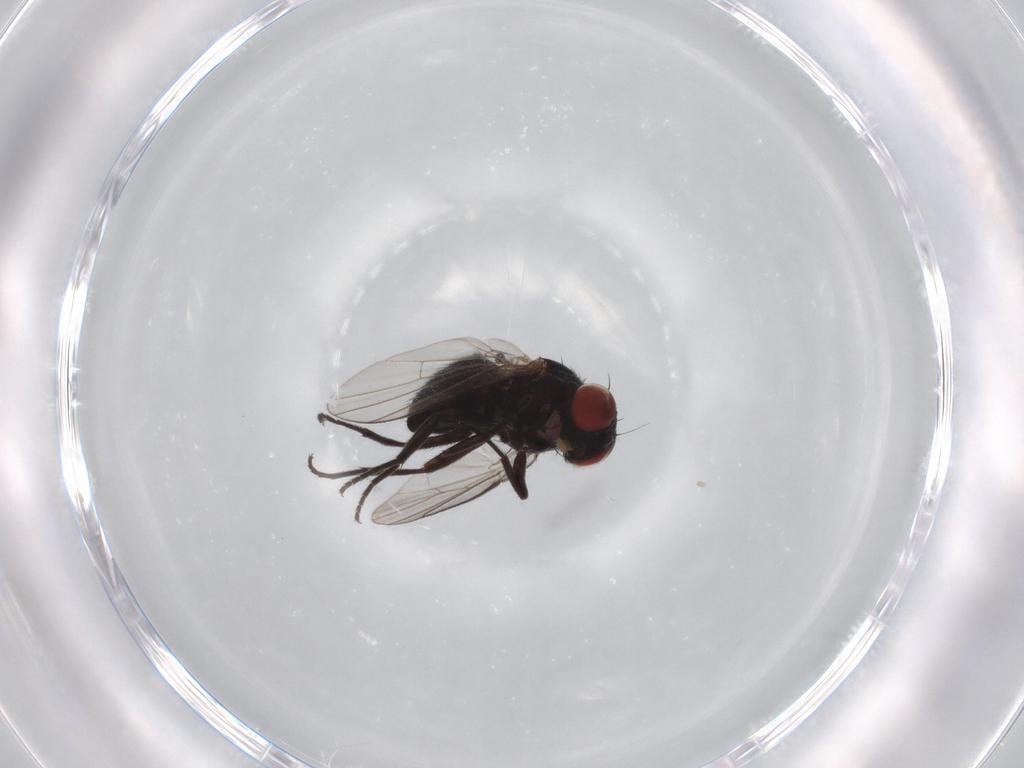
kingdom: Animalia
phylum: Arthropoda
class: Insecta
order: Diptera
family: Agromyzidae
